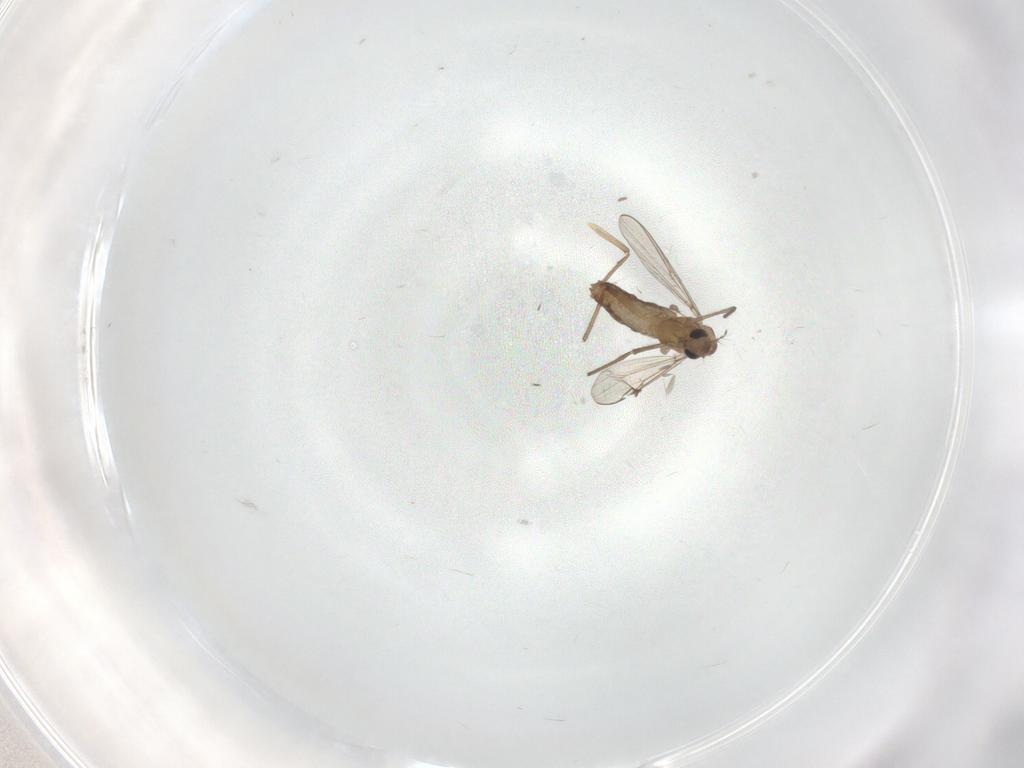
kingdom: Animalia
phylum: Arthropoda
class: Insecta
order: Diptera
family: Chironomidae
